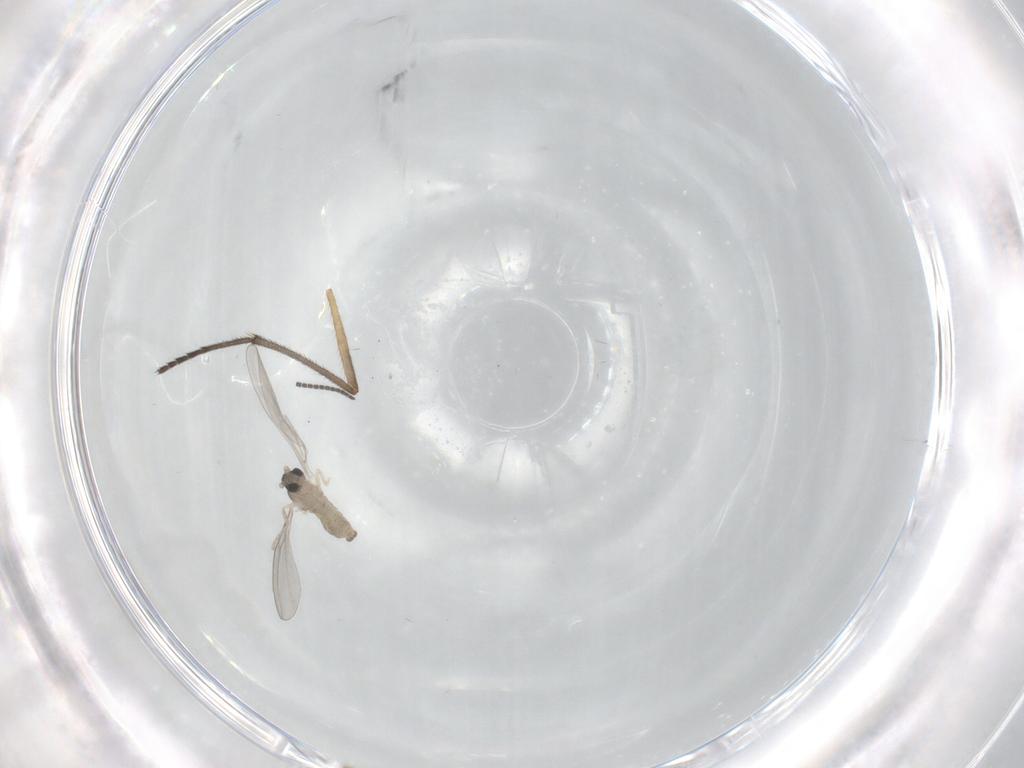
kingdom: Animalia
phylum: Arthropoda
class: Insecta
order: Diptera
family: Cecidomyiidae
